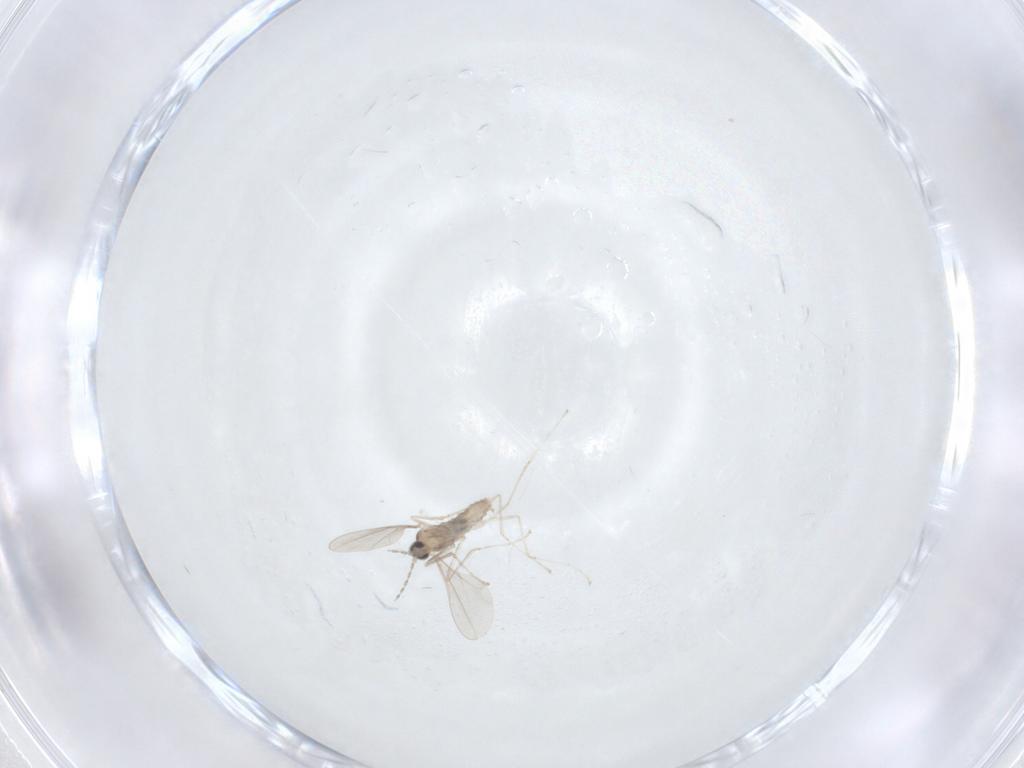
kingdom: Animalia
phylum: Arthropoda
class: Insecta
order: Diptera
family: Cecidomyiidae
